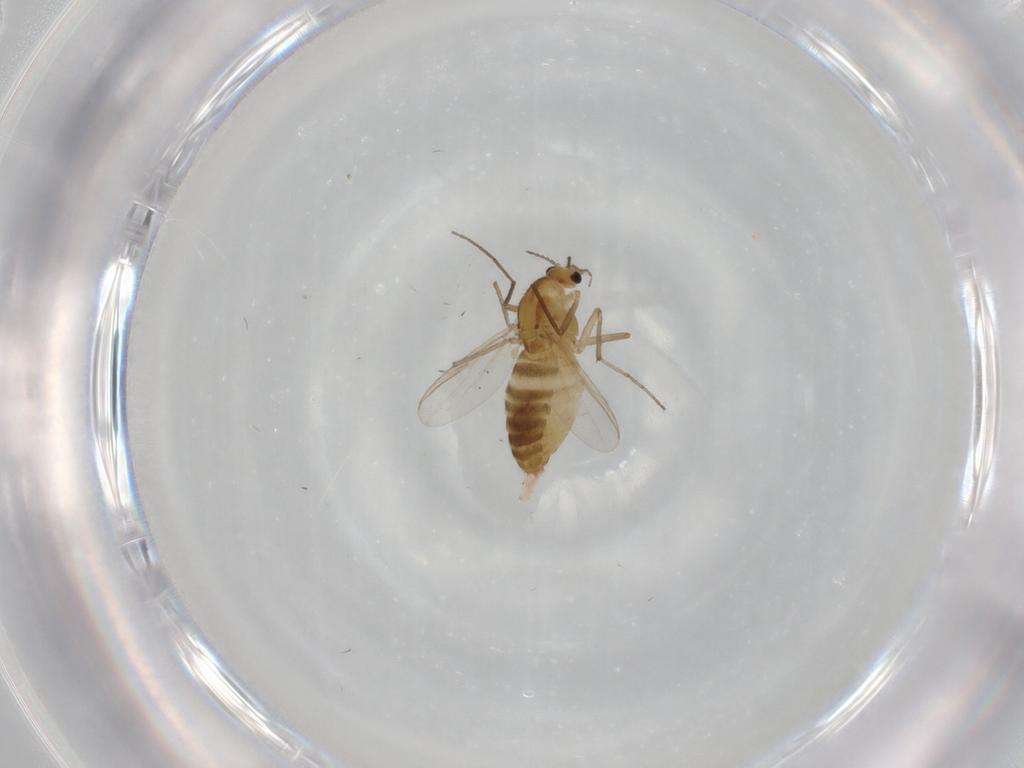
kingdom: Animalia
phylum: Arthropoda
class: Insecta
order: Diptera
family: Chironomidae
